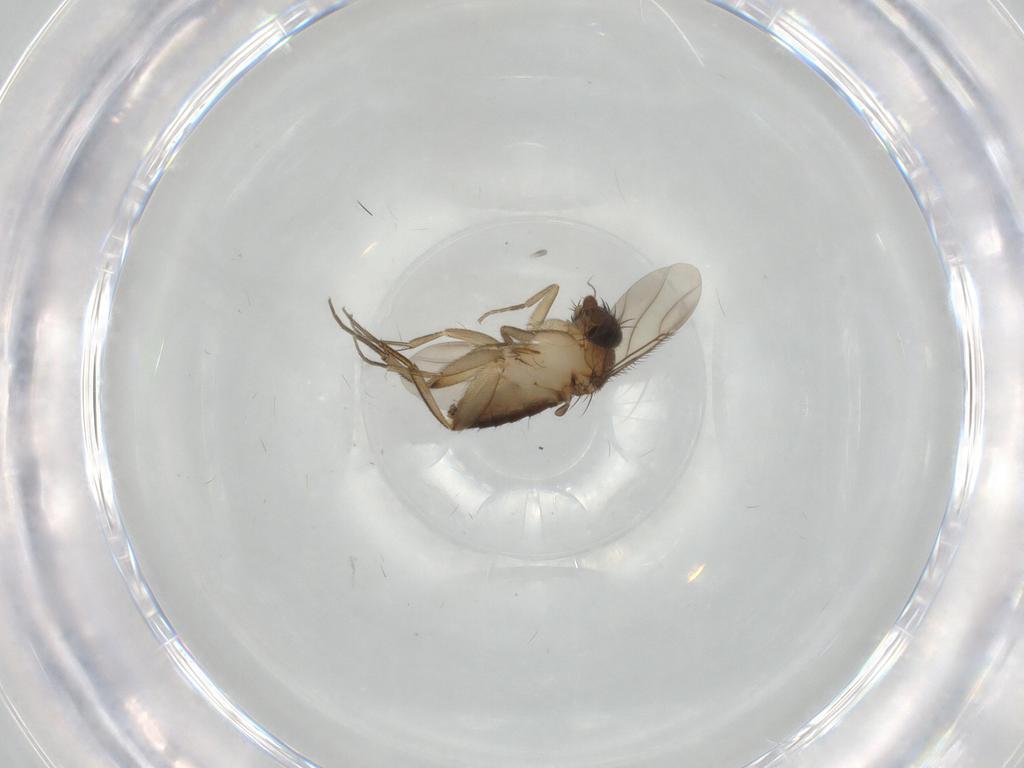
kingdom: Animalia
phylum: Arthropoda
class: Insecta
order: Diptera
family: Phoridae
